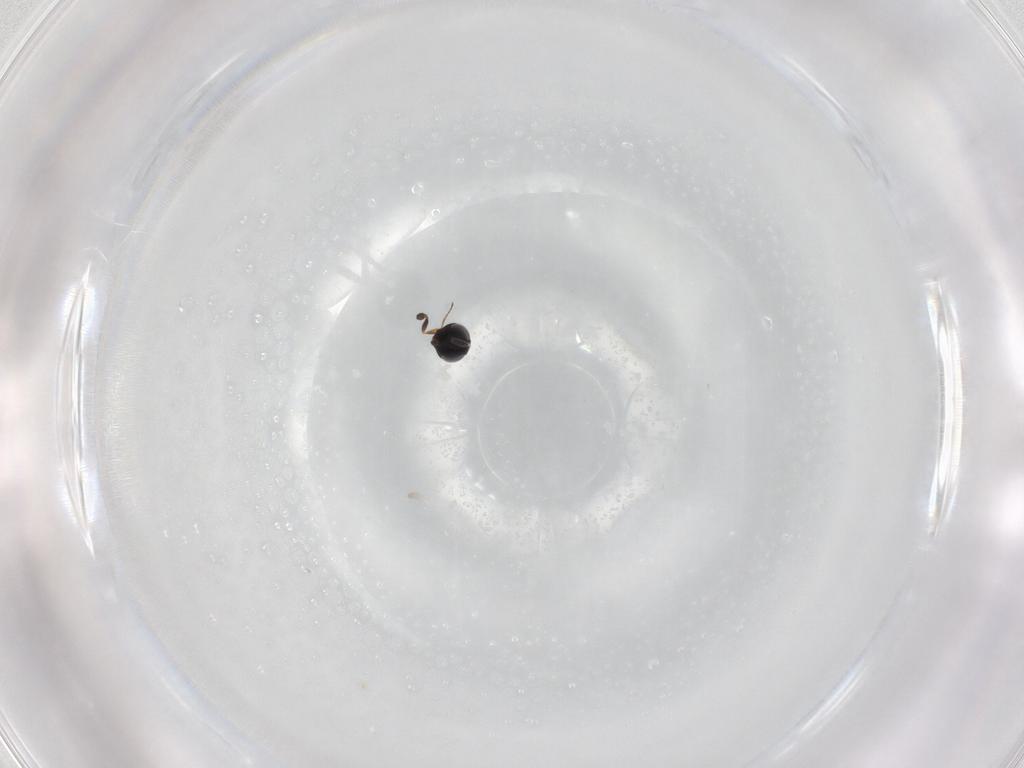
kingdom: Animalia
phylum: Arthropoda
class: Insecta
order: Hymenoptera
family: Scelionidae
